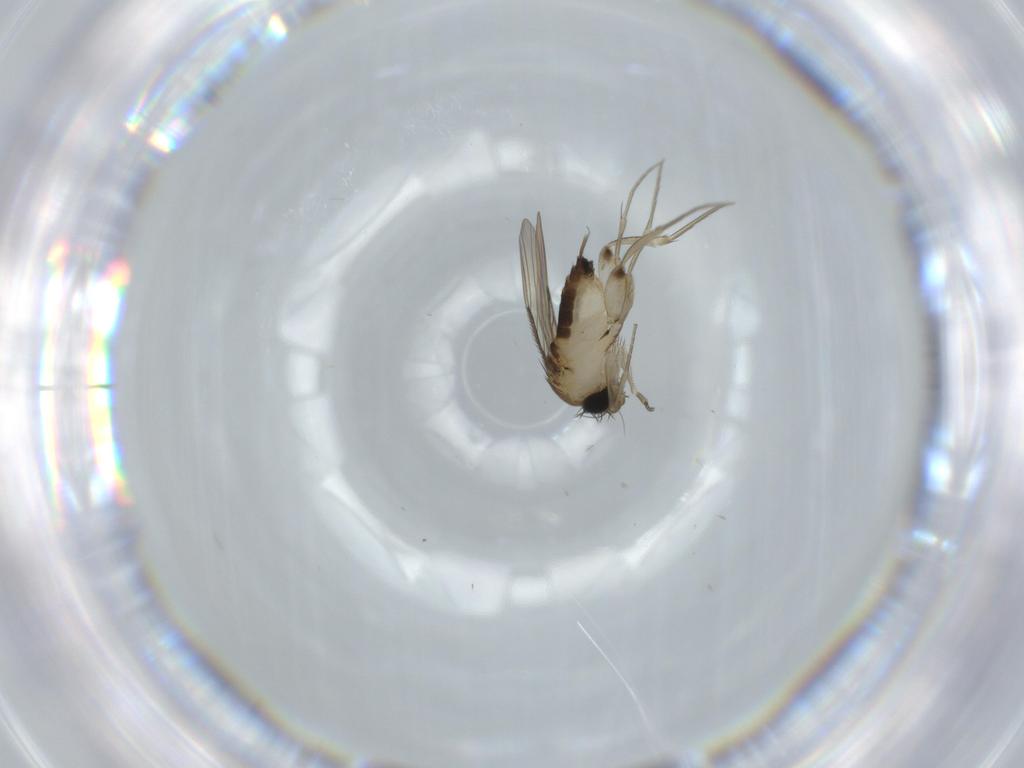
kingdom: Animalia
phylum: Arthropoda
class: Insecta
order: Diptera
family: Phoridae
